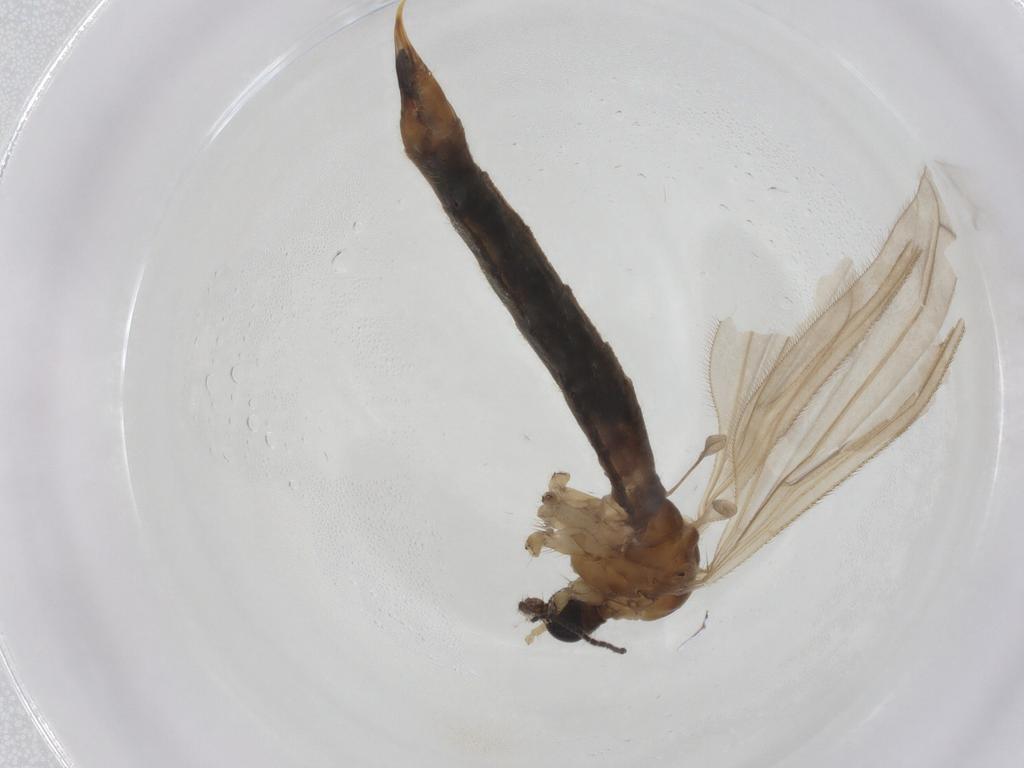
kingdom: Animalia
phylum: Arthropoda
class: Insecta
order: Diptera
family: Limoniidae
